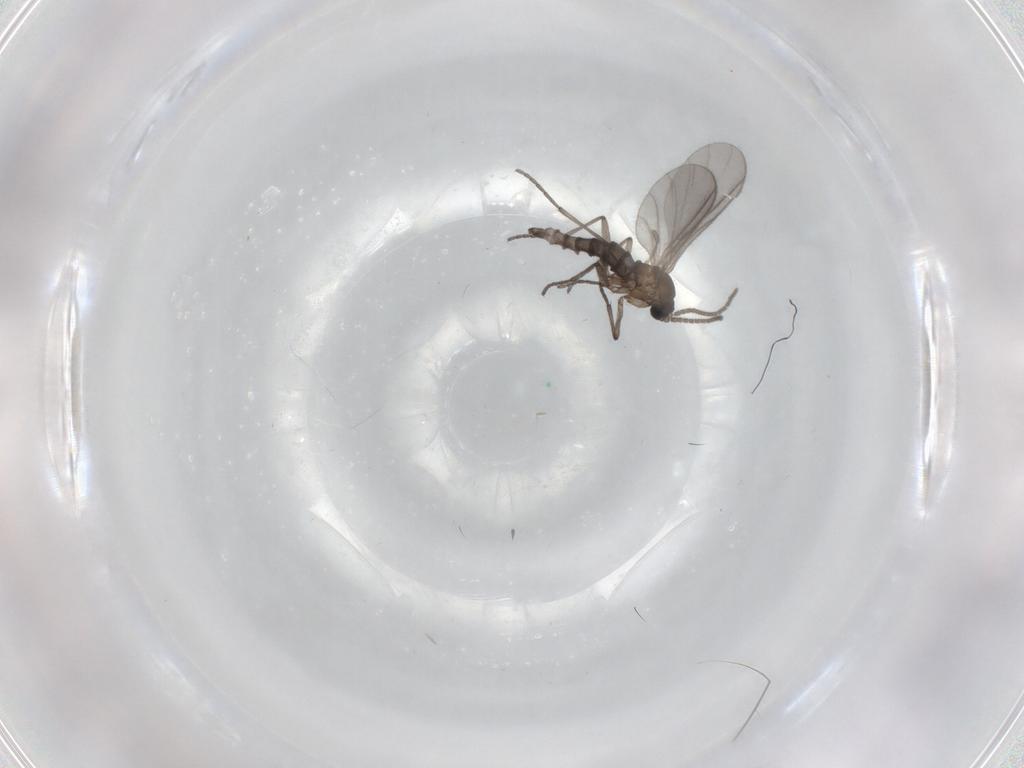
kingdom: Animalia
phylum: Arthropoda
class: Insecta
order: Diptera
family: Sciaridae
